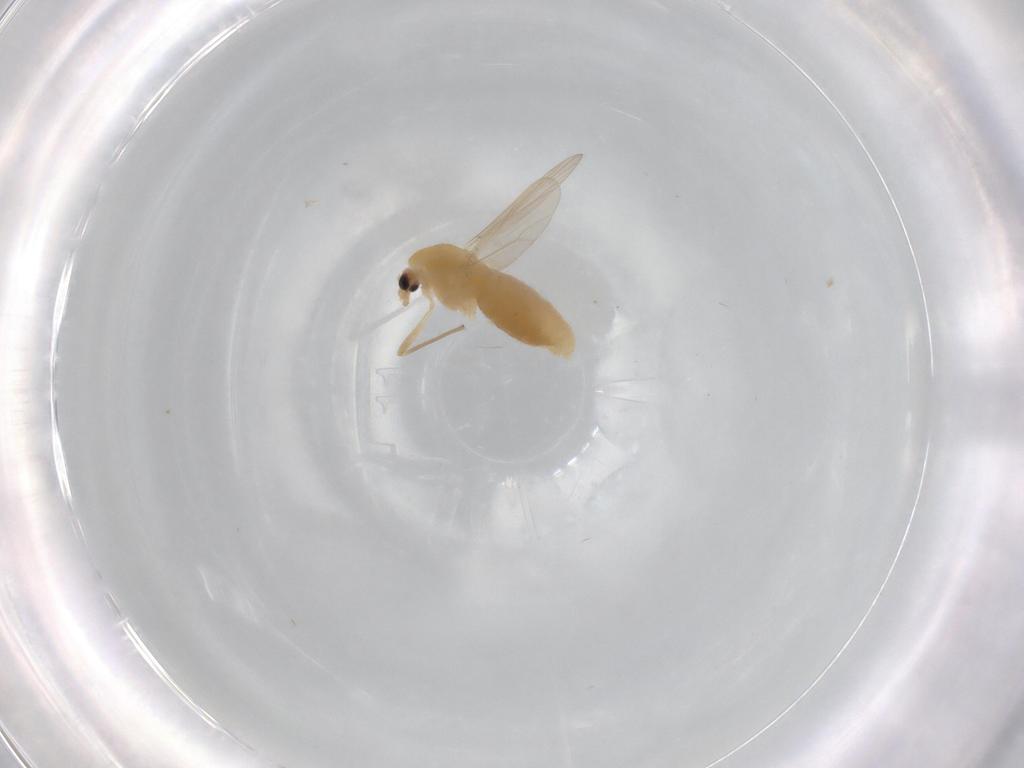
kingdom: Animalia
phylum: Arthropoda
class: Insecta
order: Diptera
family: Chironomidae
